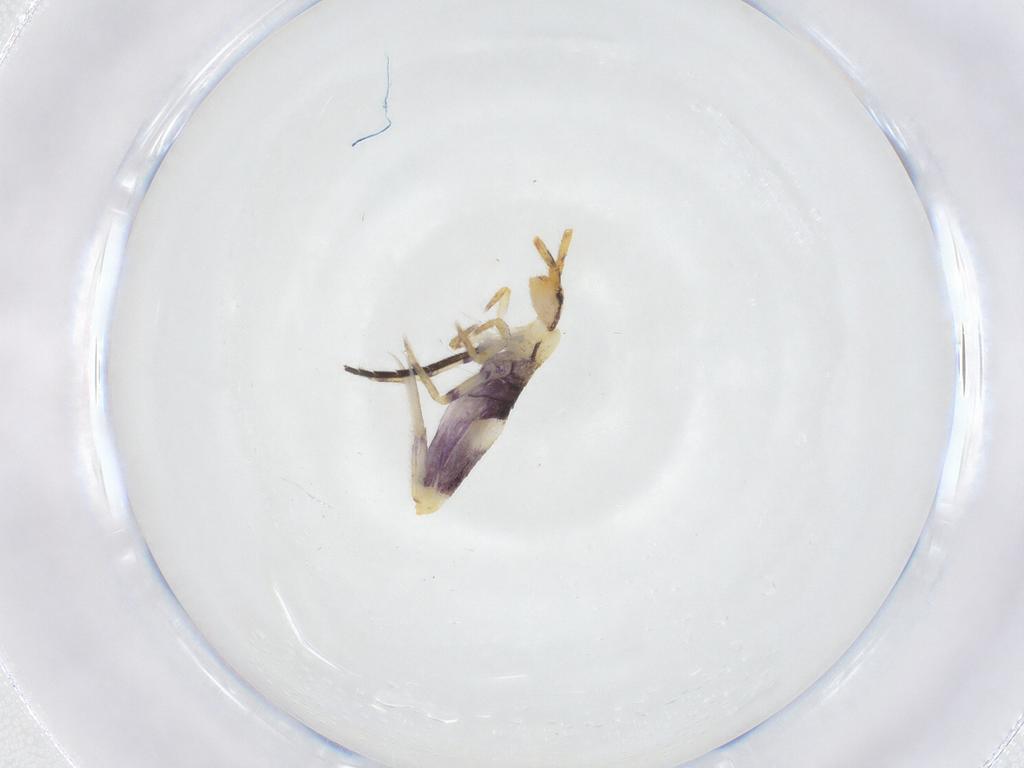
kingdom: Animalia
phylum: Arthropoda
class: Collembola
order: Entomobryomorpha
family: Entomobryidae
